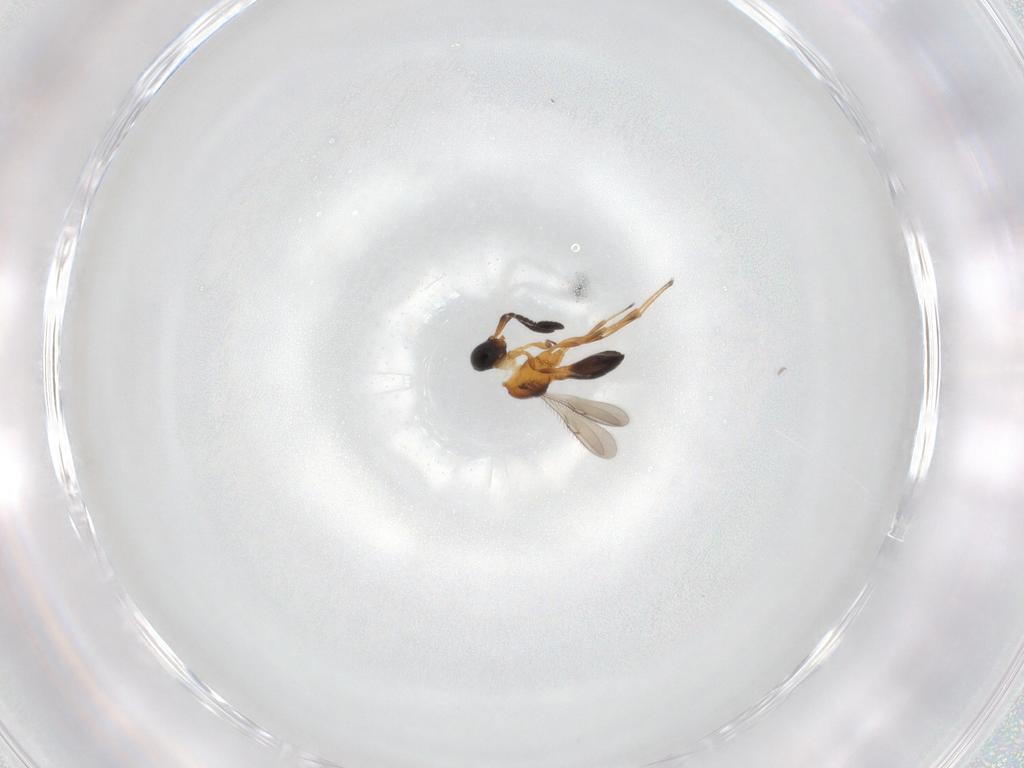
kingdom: Animalia
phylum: Arthropoda
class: Insecta
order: Hymenoptera
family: Scelionidae
